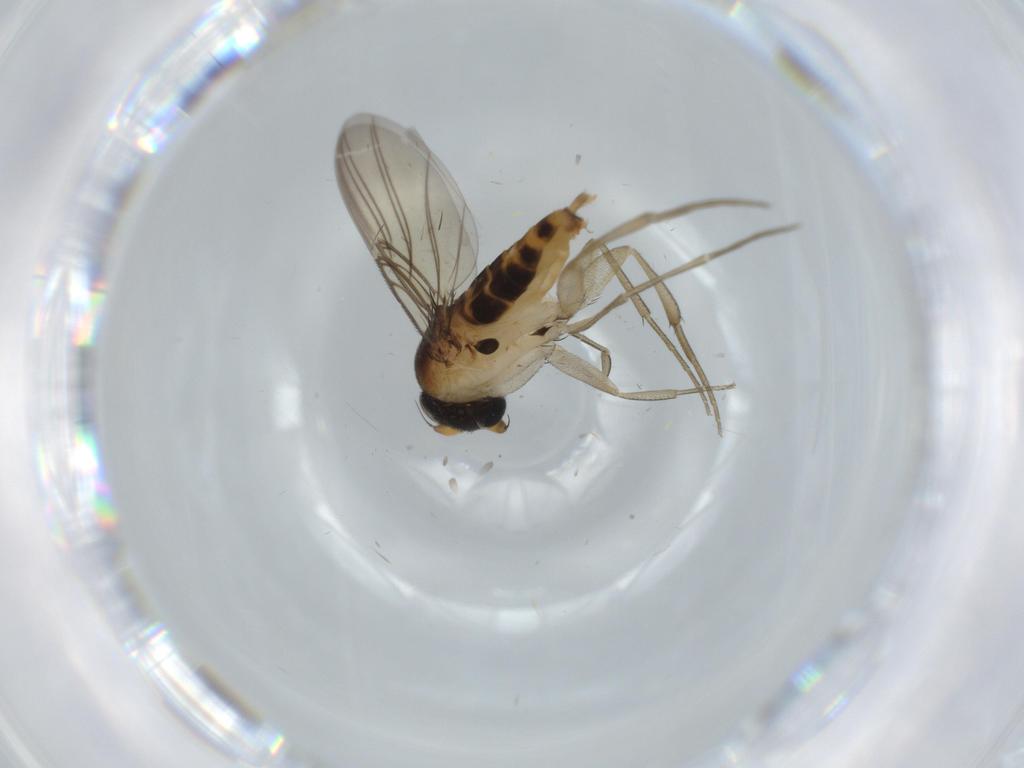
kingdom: Animalia
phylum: Arthropoda
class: Insecta
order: Diptera
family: Phoridae
